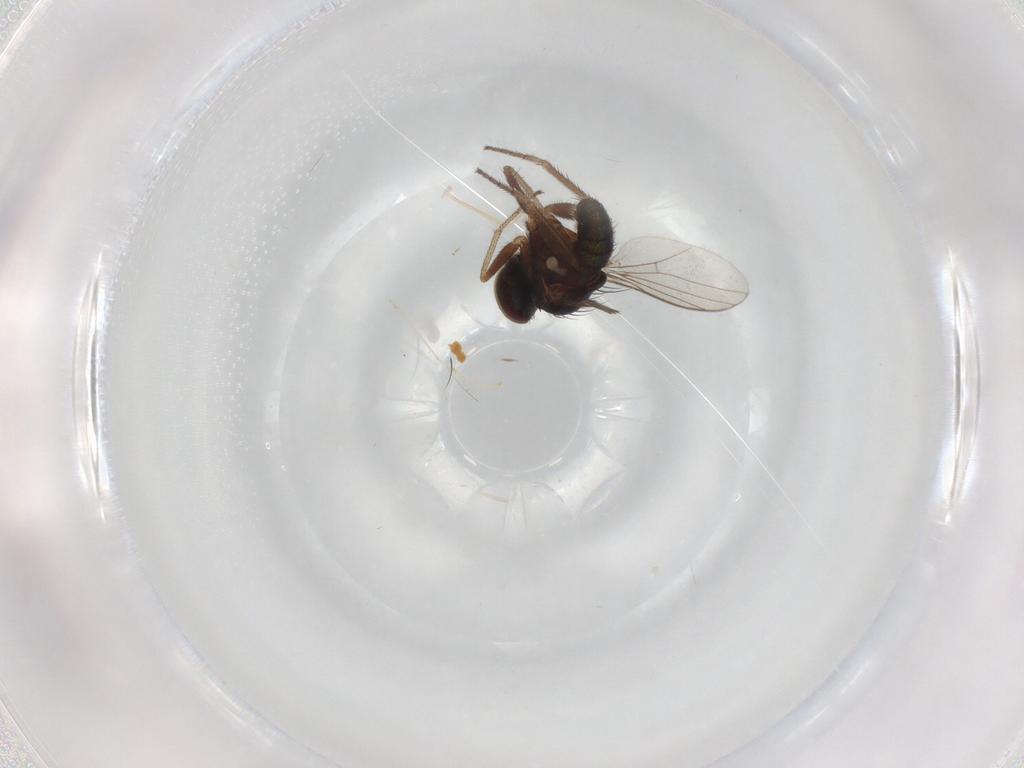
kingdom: Animalia
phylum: Arthropoda
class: Insecta
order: Diptera
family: Dolichopodidae
